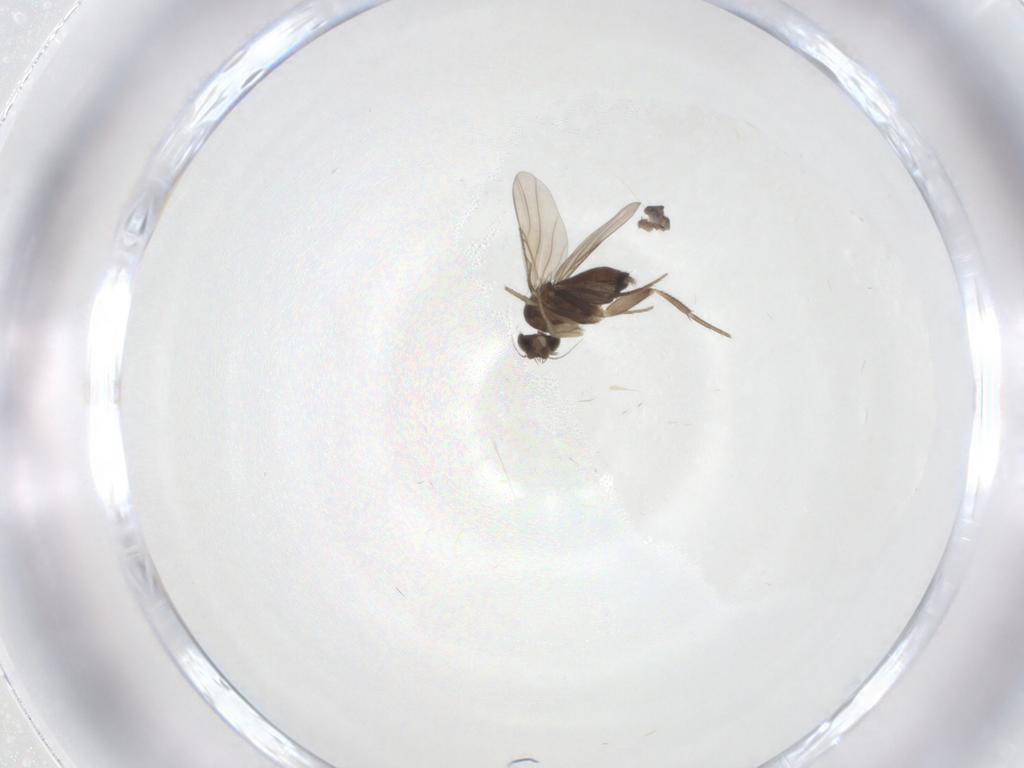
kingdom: Animalia
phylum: Arthropoda
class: Insecta
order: Diptera
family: Phoridae
